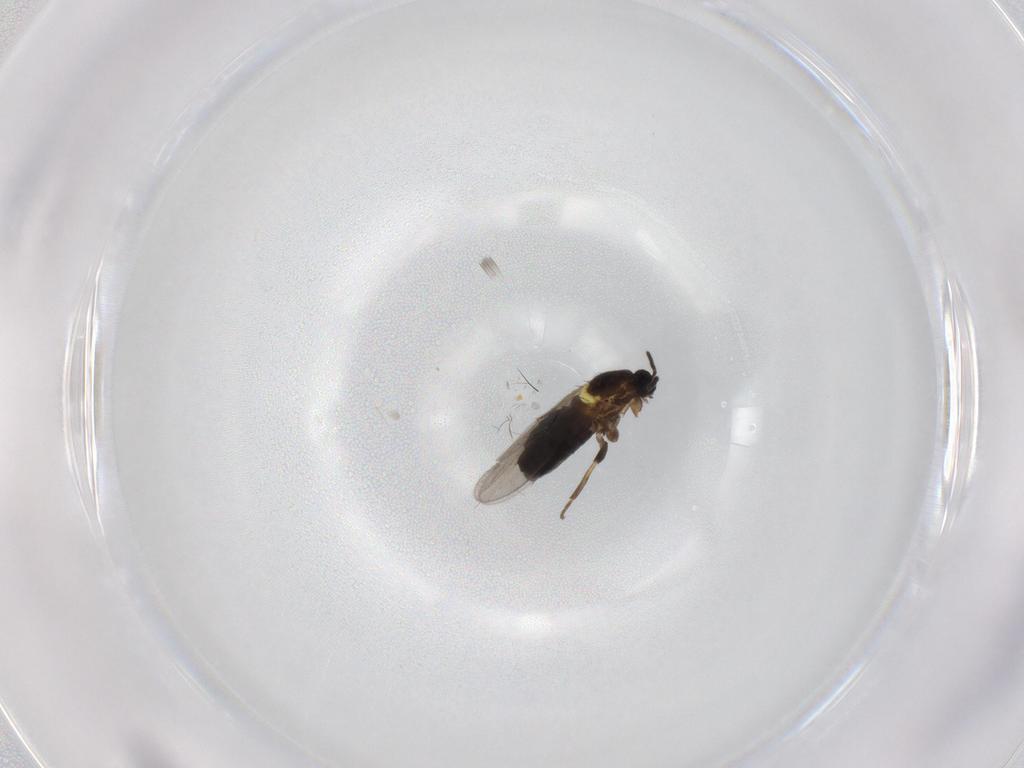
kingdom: Animalia
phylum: Arthropoda
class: Insecta
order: Diptera
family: Scatopsidae
